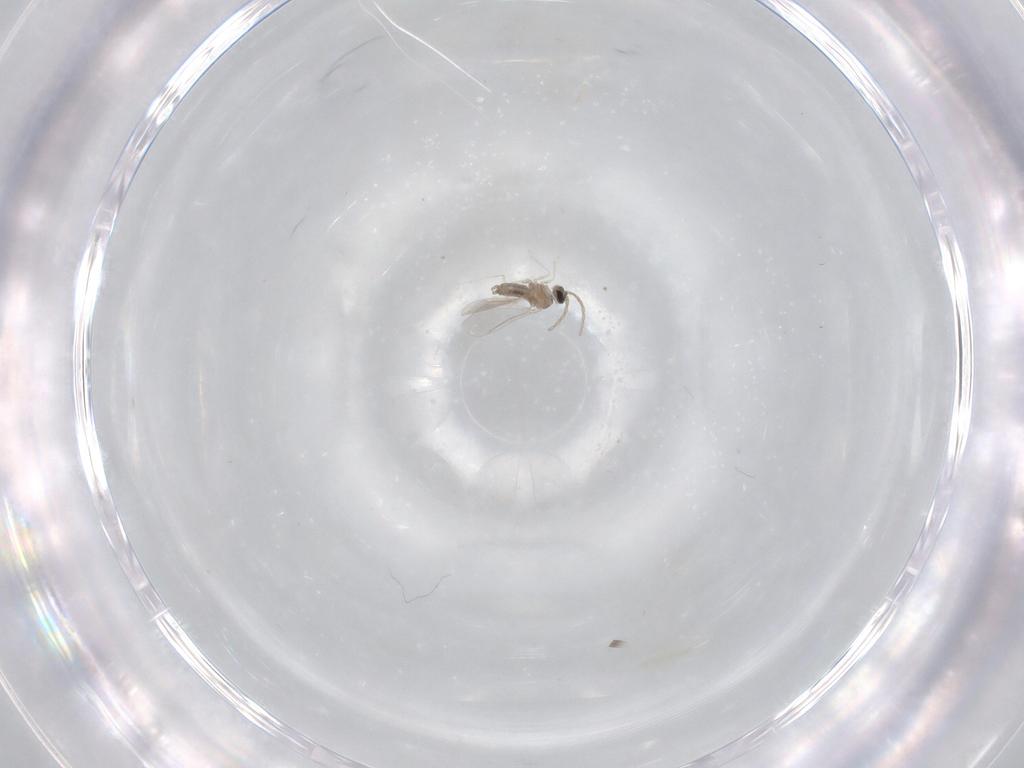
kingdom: Animalia
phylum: Arthropoda
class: Insecta
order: Diptera
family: Cecidomyiidae
